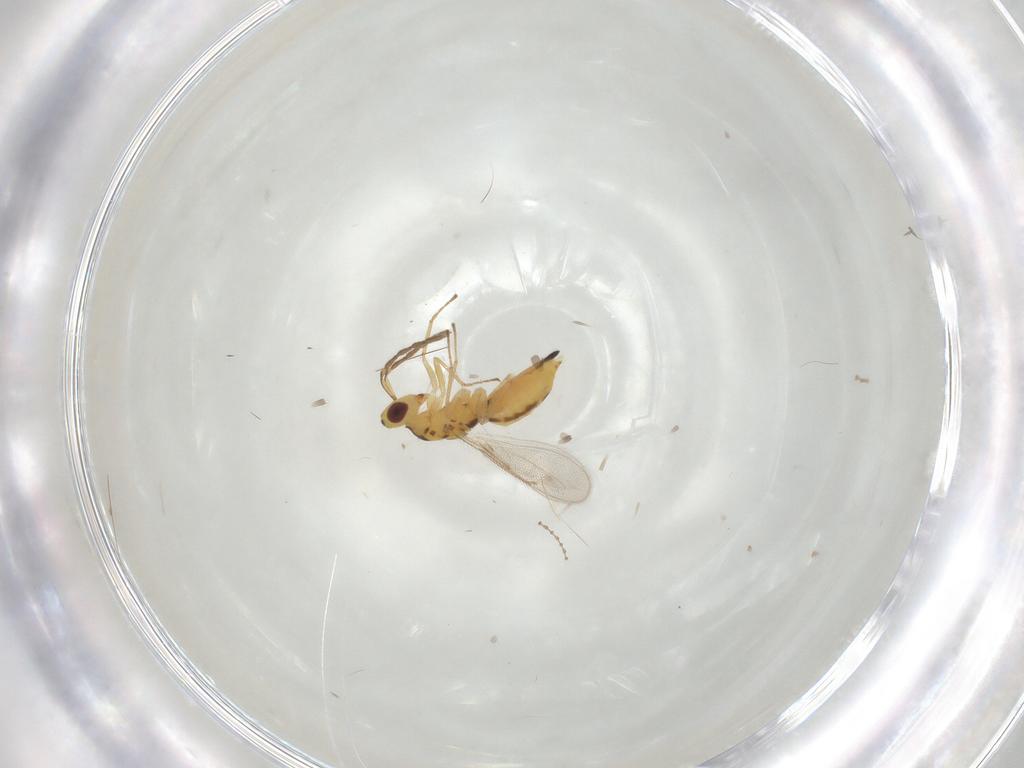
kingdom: Animalia
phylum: Arthropoda
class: Insecta
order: Hymenoptera
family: Eulophidae
